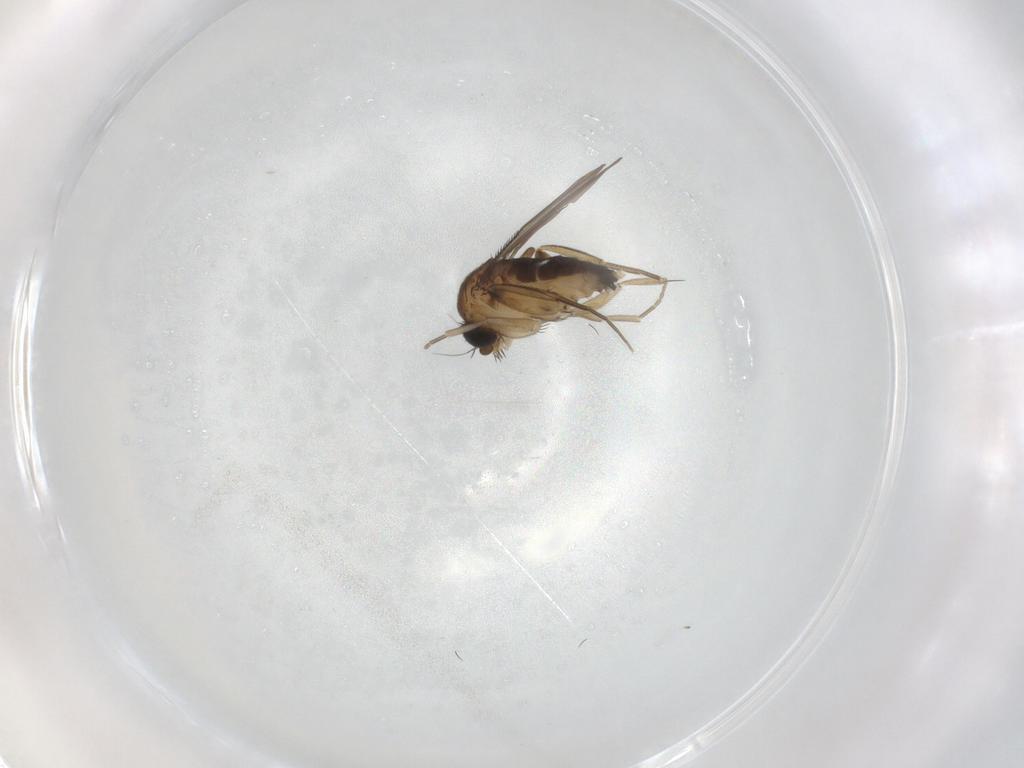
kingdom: Animalia
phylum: Arthropoda
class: Insecta
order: Diptera
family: Phoridae
